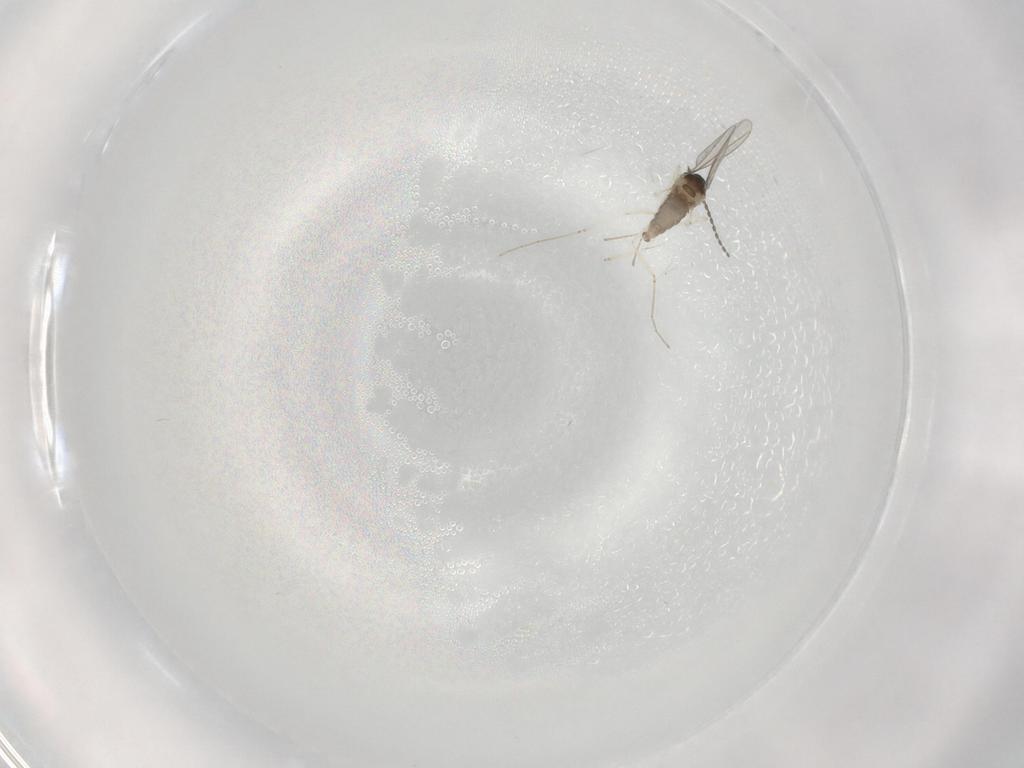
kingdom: Animalia
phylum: Arthropoda
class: Insecta
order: Diptera
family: Cecidomyiidae
